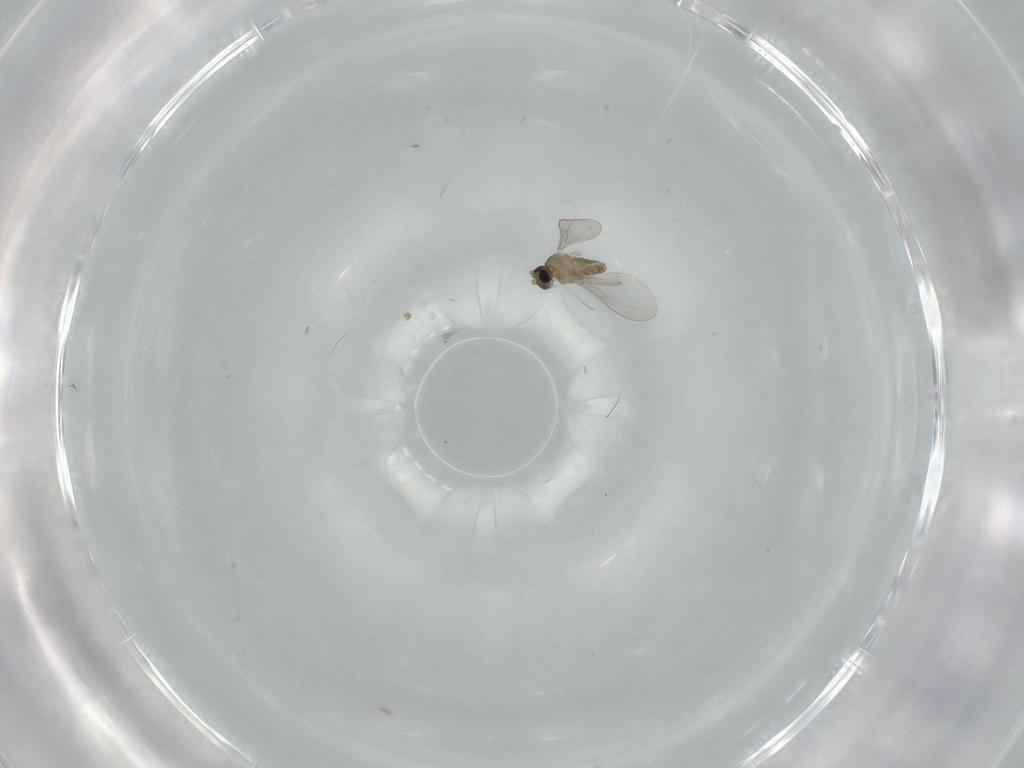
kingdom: Animalia
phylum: Arthropoda
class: Insecta
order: Diptera
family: Cecidomyiidae
